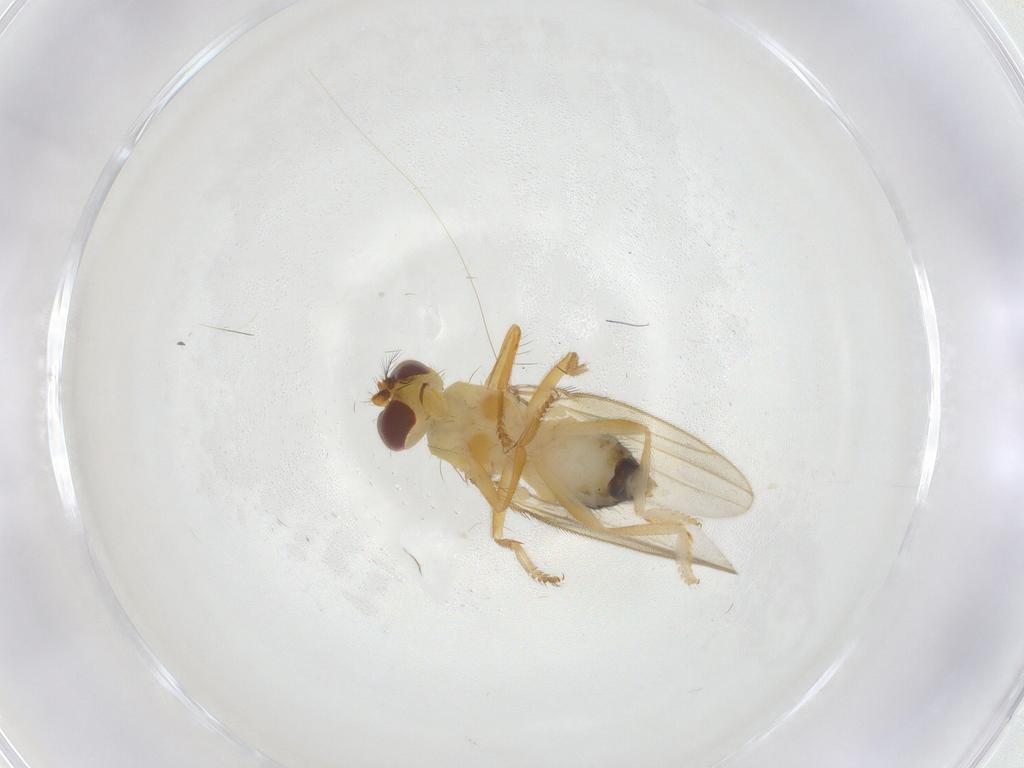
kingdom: Animalia
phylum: Arthropoda
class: Insecta
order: Diptera
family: Periscelididae
